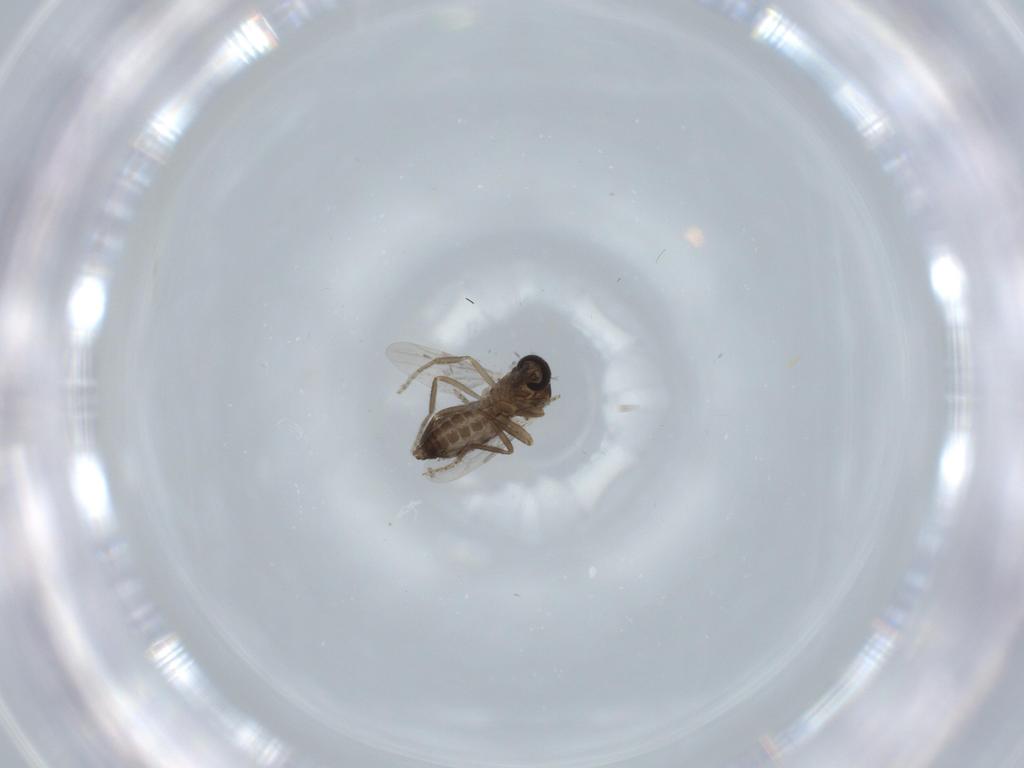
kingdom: Animalia
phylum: Arthropoda
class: Insecta
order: Diptera
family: Ceratopogonidae
